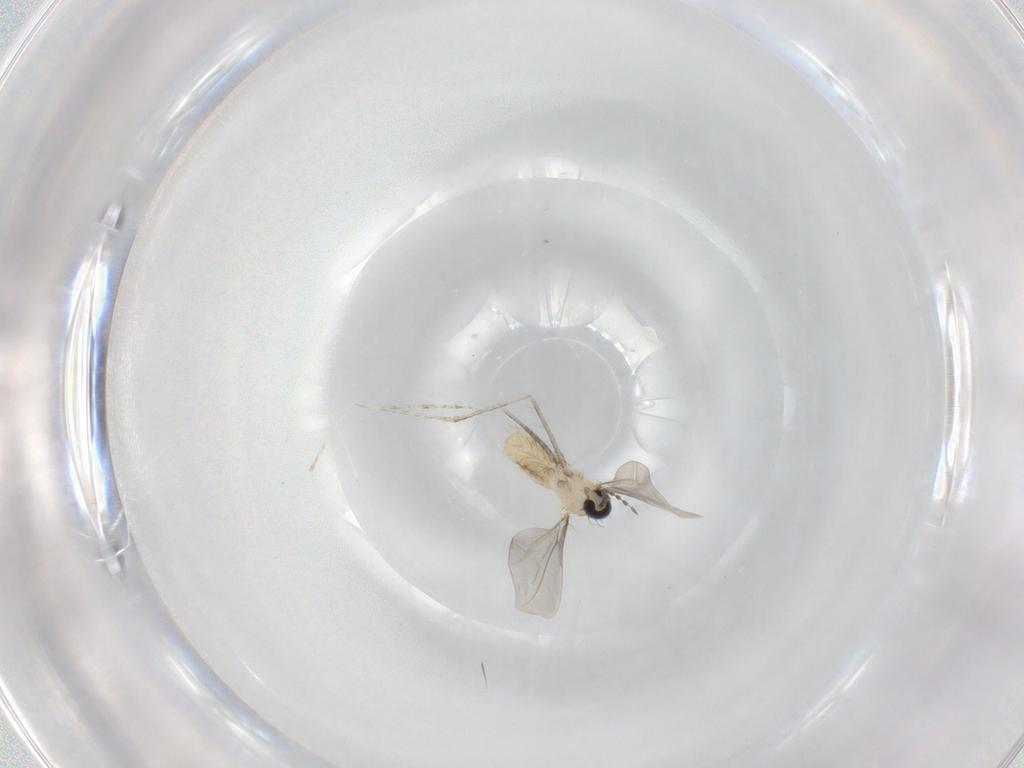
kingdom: Animalia
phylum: Arthropoda
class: Insecta
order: Diptera
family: Cecidomyiidae
